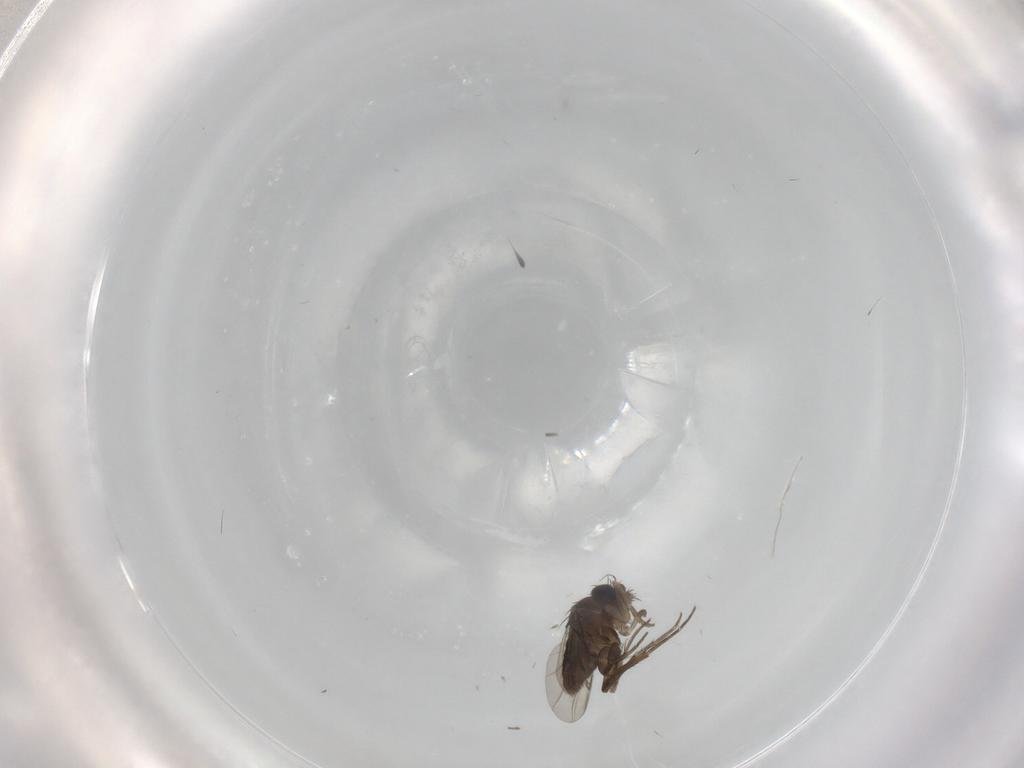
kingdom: Animalia
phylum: Arthropoda
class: Insecta
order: Diptera
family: Phoridae
